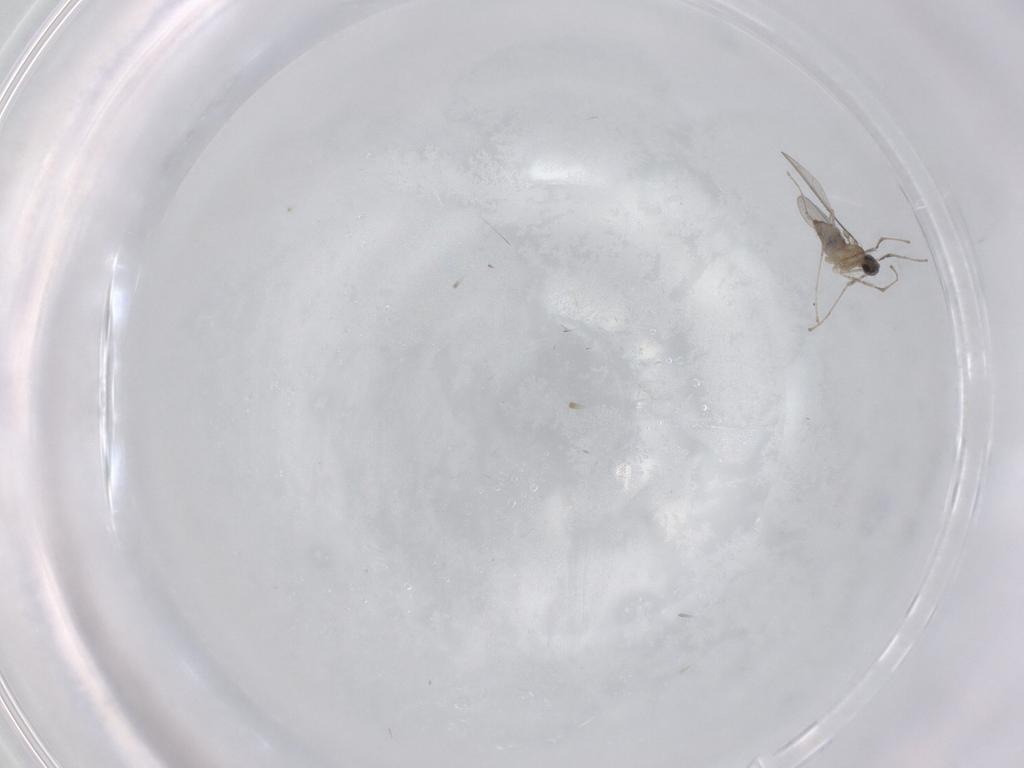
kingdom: Animalia
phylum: Arthropoda
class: Insecta
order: Diptera
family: Cecidomyiidae
